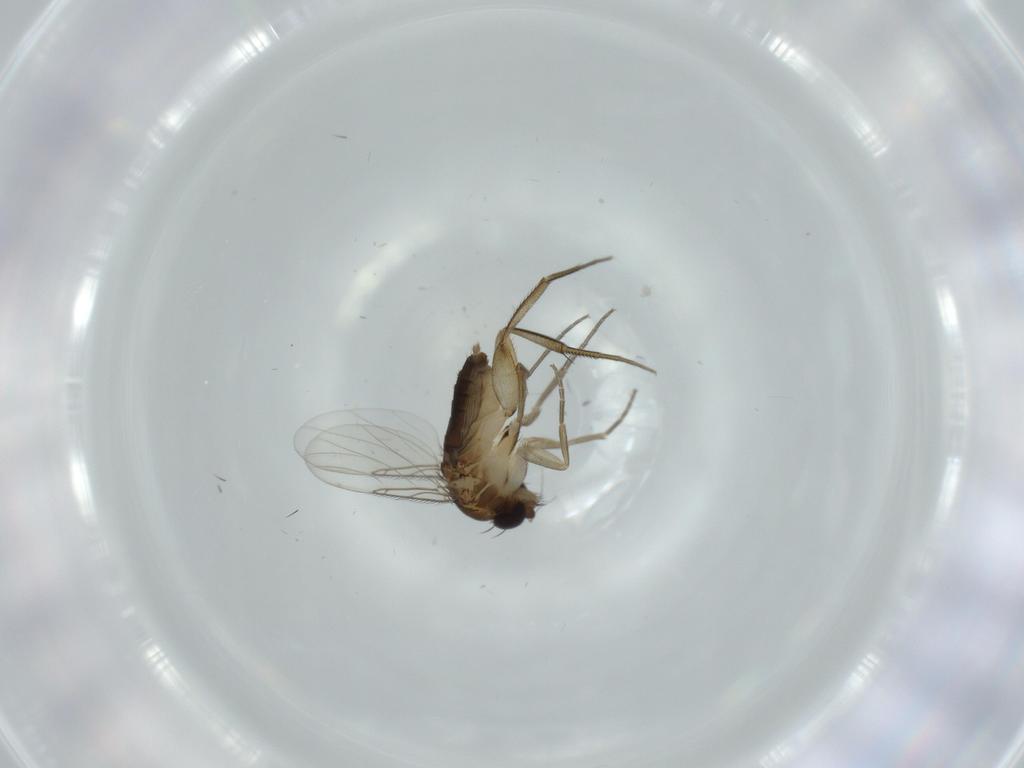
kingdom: Animalia
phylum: Arthropoda
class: Insecta
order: Diptera
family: Phoridae
